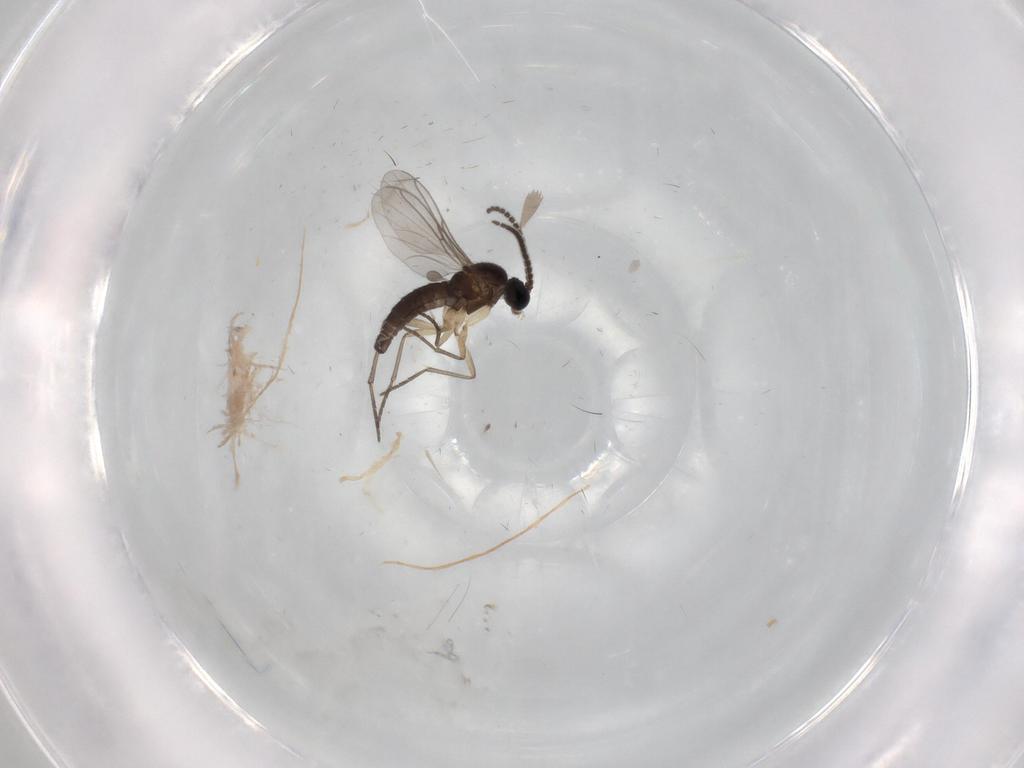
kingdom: Animalia
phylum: Arthropoda
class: Insecta
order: Diptera
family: Sciaridae
